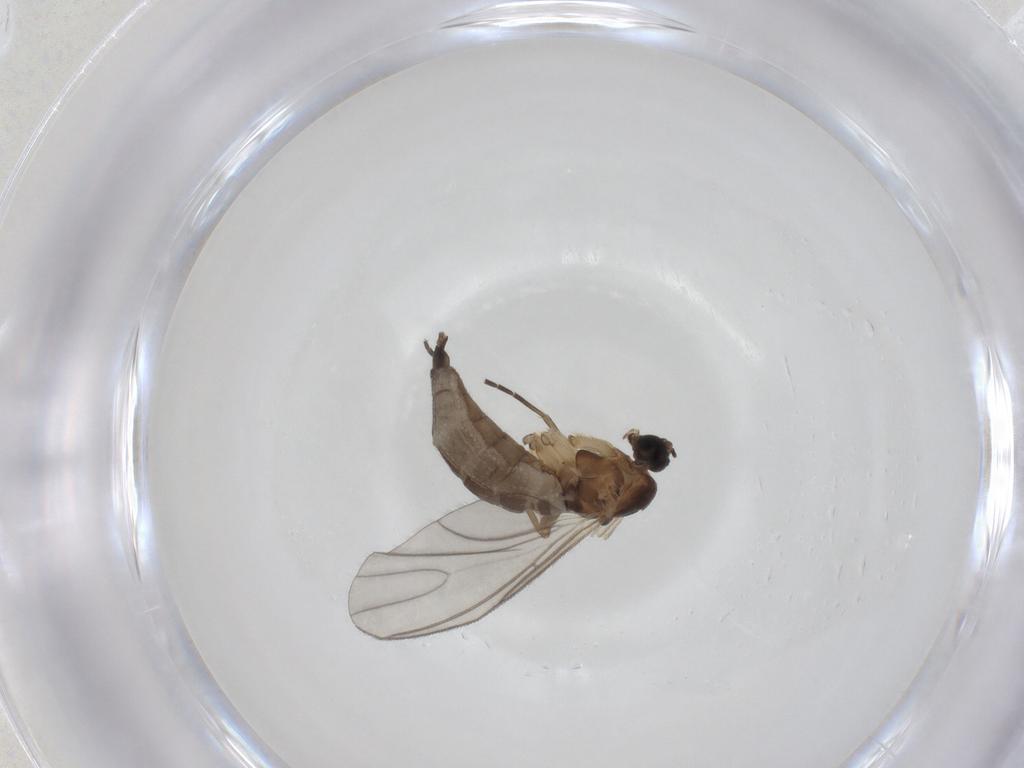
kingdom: Animalia
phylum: Arthropoda
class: Insecta
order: Diptera
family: Sciaridae
